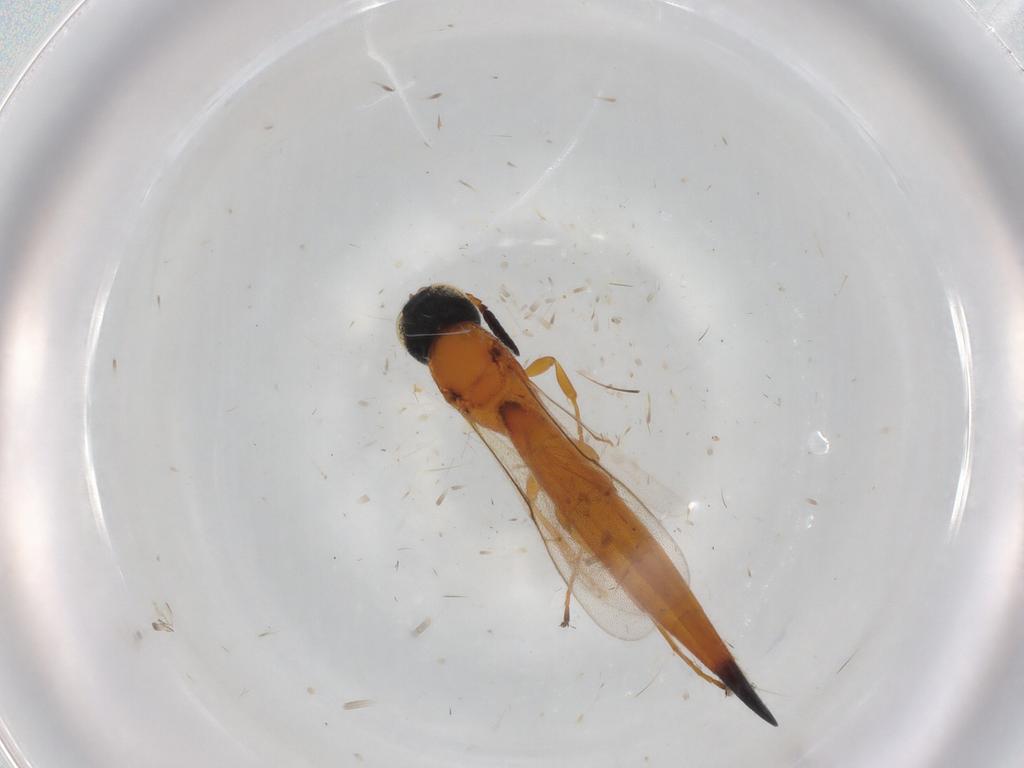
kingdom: Animalia
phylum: Arthropoda
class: Insecta
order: Hymenoptera
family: Scelionidae
